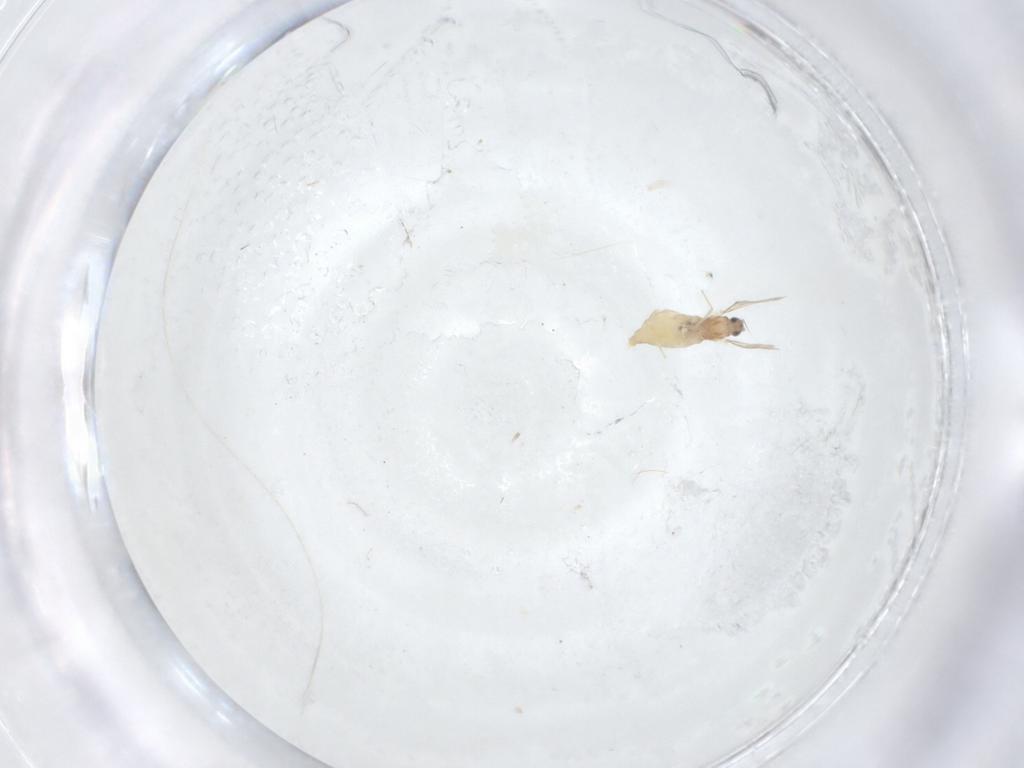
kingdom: Animalia
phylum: Arthropoda
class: Insecta
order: Diptera
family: Cecidomyiidae
